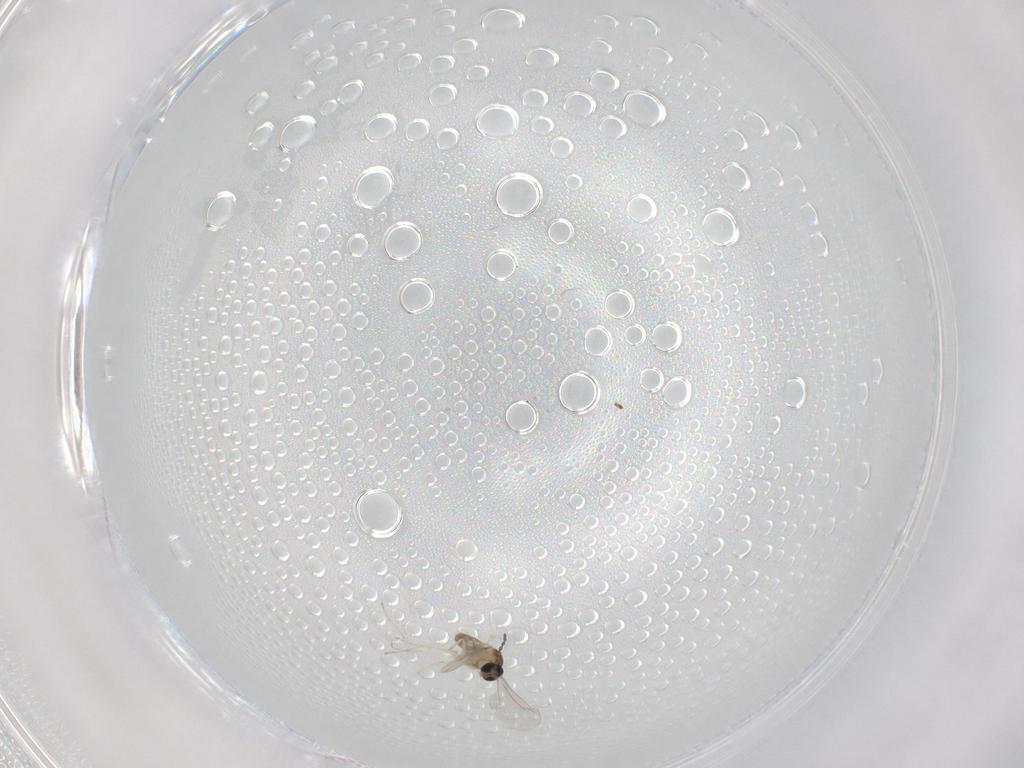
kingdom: Animalia
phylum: Arthropoda
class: Insecta
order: Diptera
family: Cecidomyiidae
